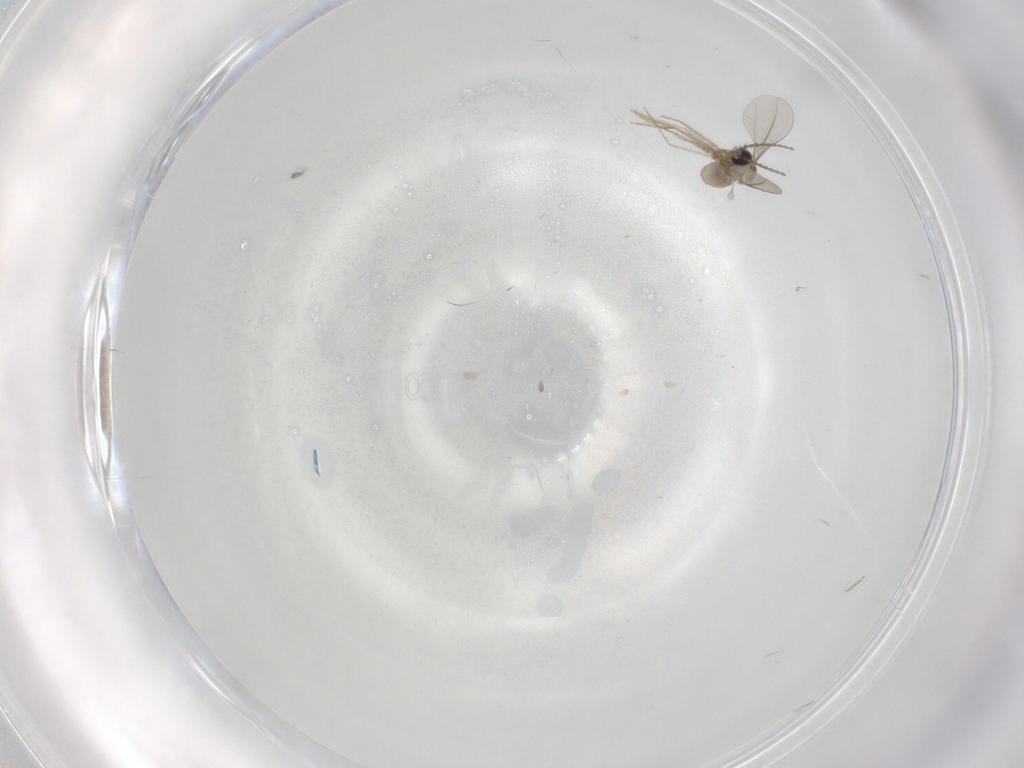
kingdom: Animalia
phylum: Arthropoda
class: Insecta
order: Diptera
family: Cecidomyiidae
